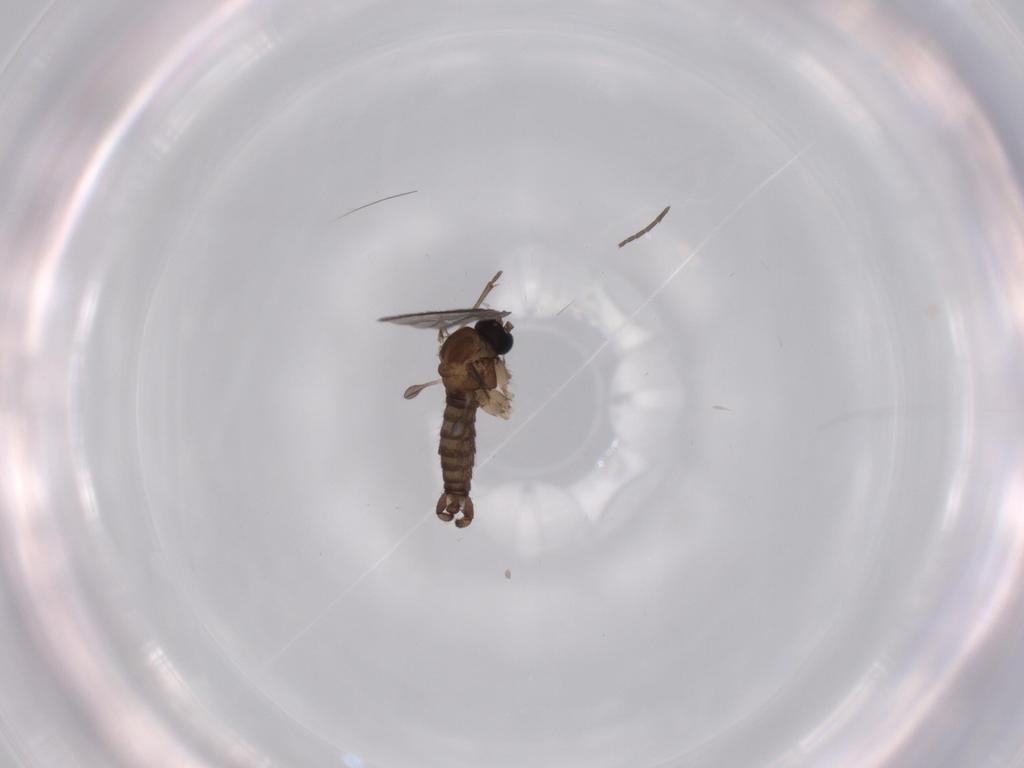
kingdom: Animalia
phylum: Arthropoda
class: Insecta
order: Diptera
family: Sciaridae
